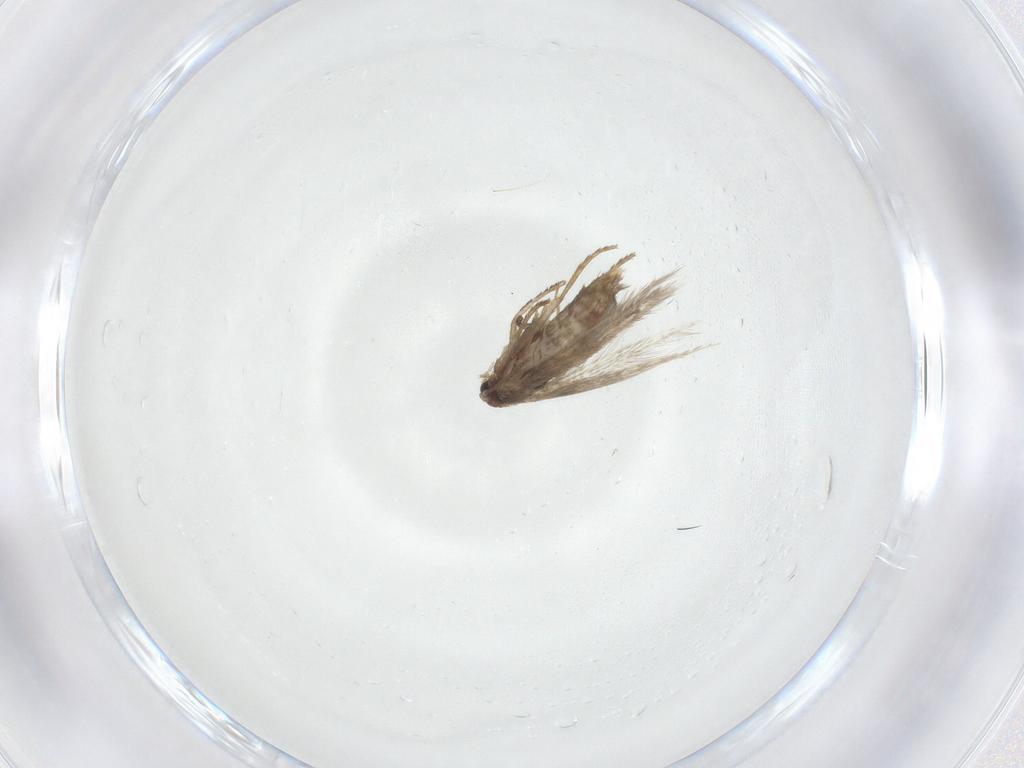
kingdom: Animalia
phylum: Arthropoda
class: Insecta
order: Lepidoptera
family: Nepticulidae
